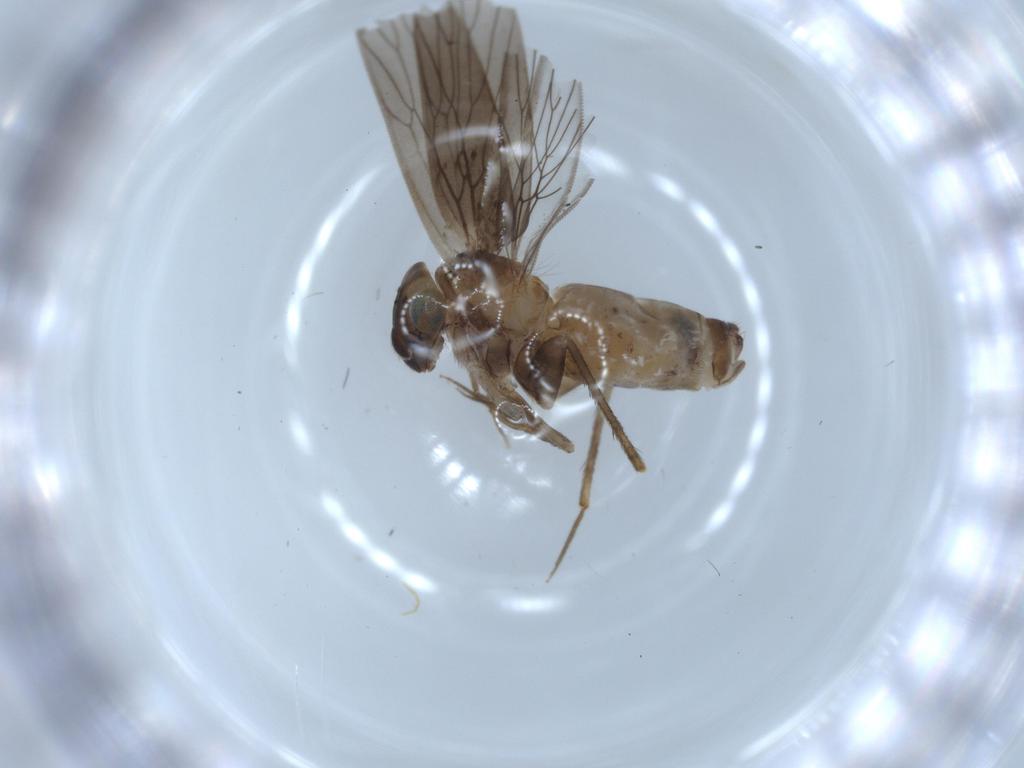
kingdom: Animalia
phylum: Arthropoda
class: Insecta
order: Psocodea
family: Lepidopsocidae
